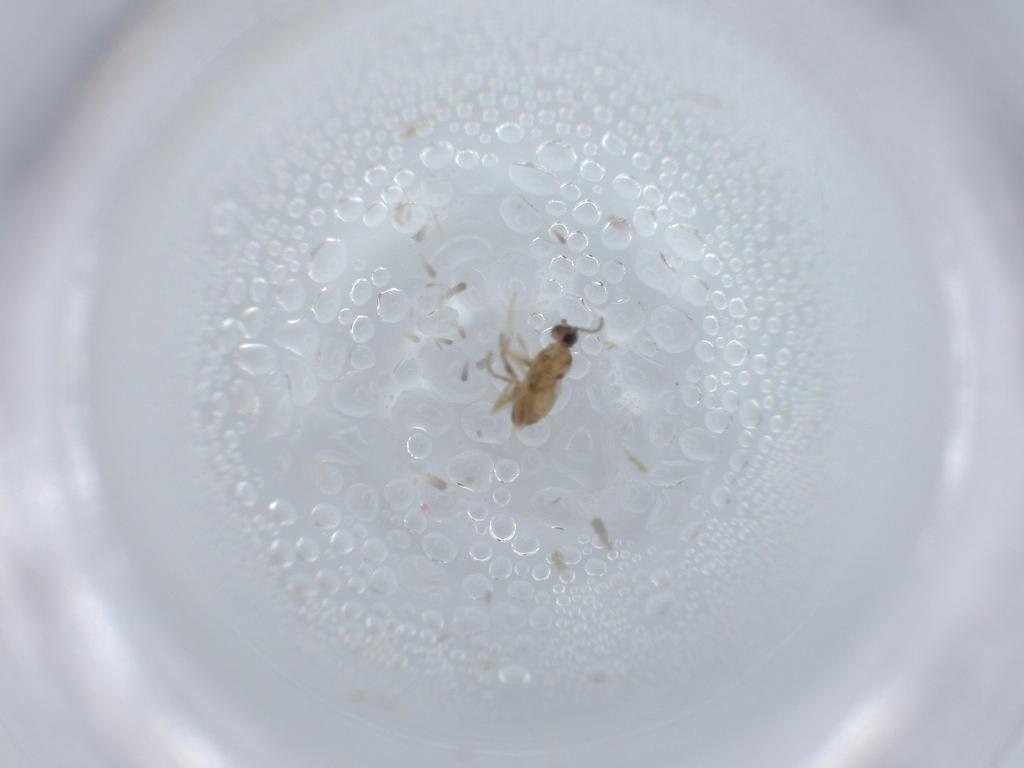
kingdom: Animalia
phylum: Arthropoda
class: Insecta
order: Diptera
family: Cecidomyiidae
